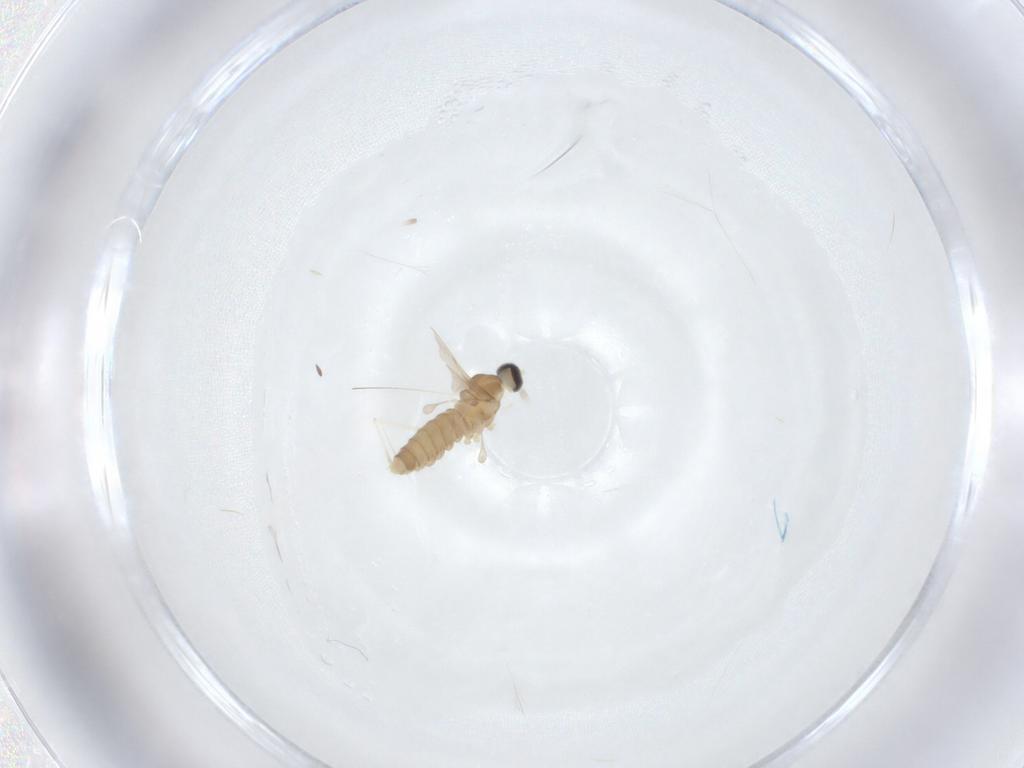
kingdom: Animalia
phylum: Arthropoda
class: Insecta
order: Diptera
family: Cecidomyiidae
